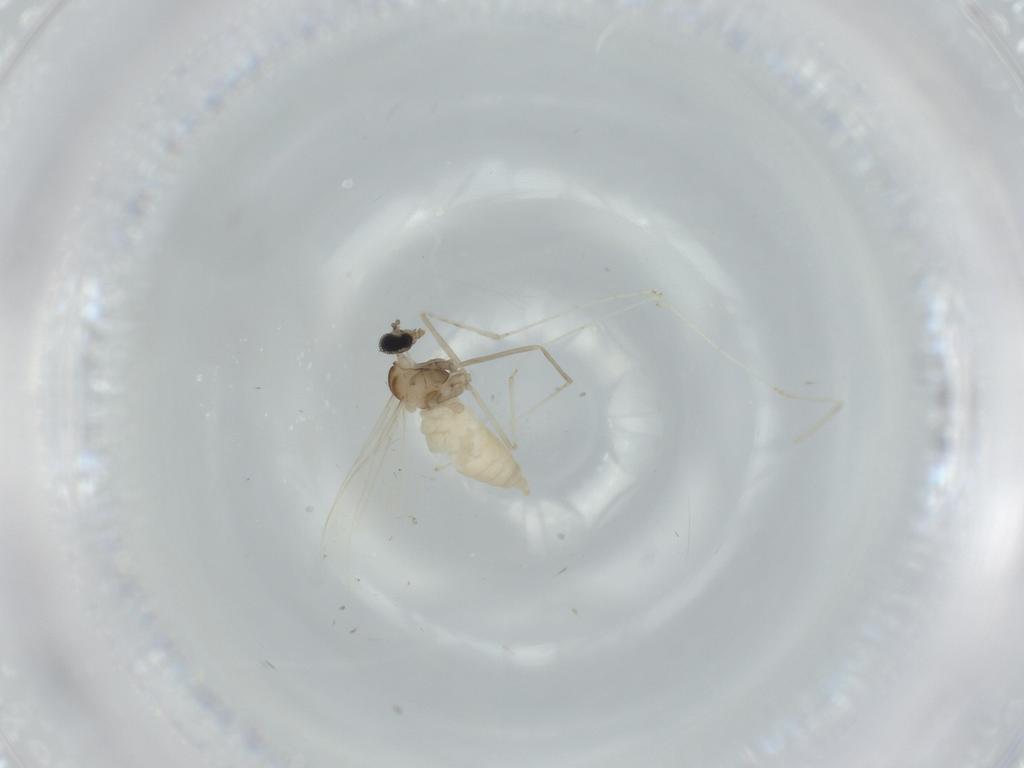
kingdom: Animalia
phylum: Arthropoda
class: Insecta
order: Diptera
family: Cecidomyiidae
